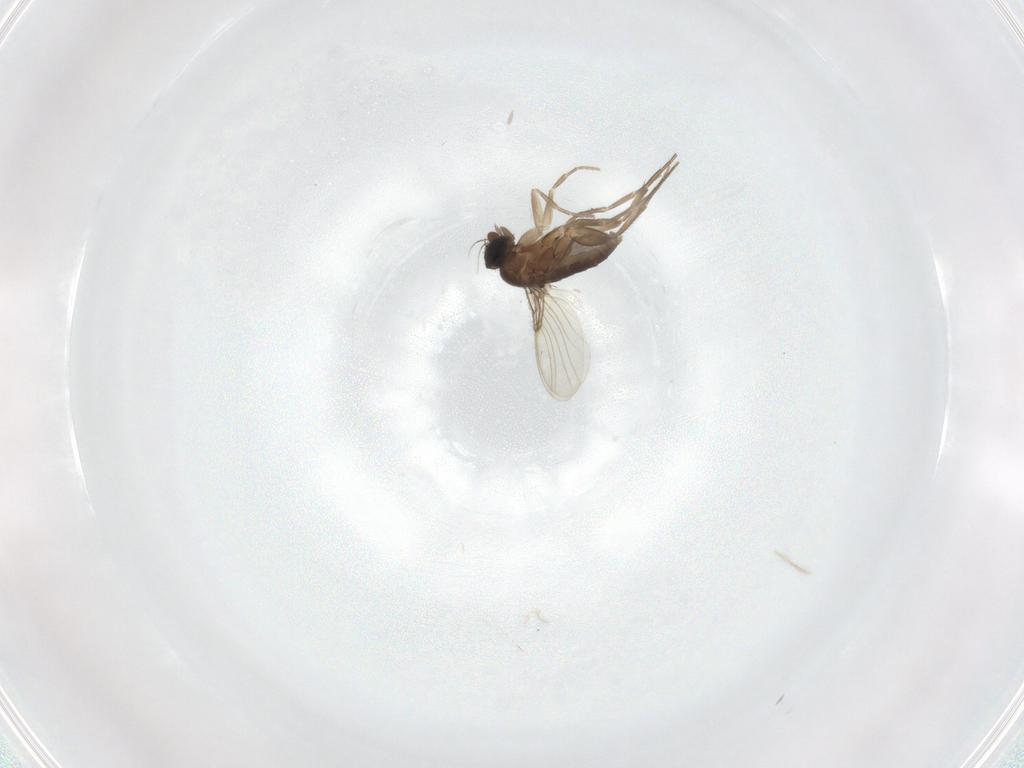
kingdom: Animalia
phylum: Arthropoda
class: Insecta
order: Diptera
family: Phoridae
